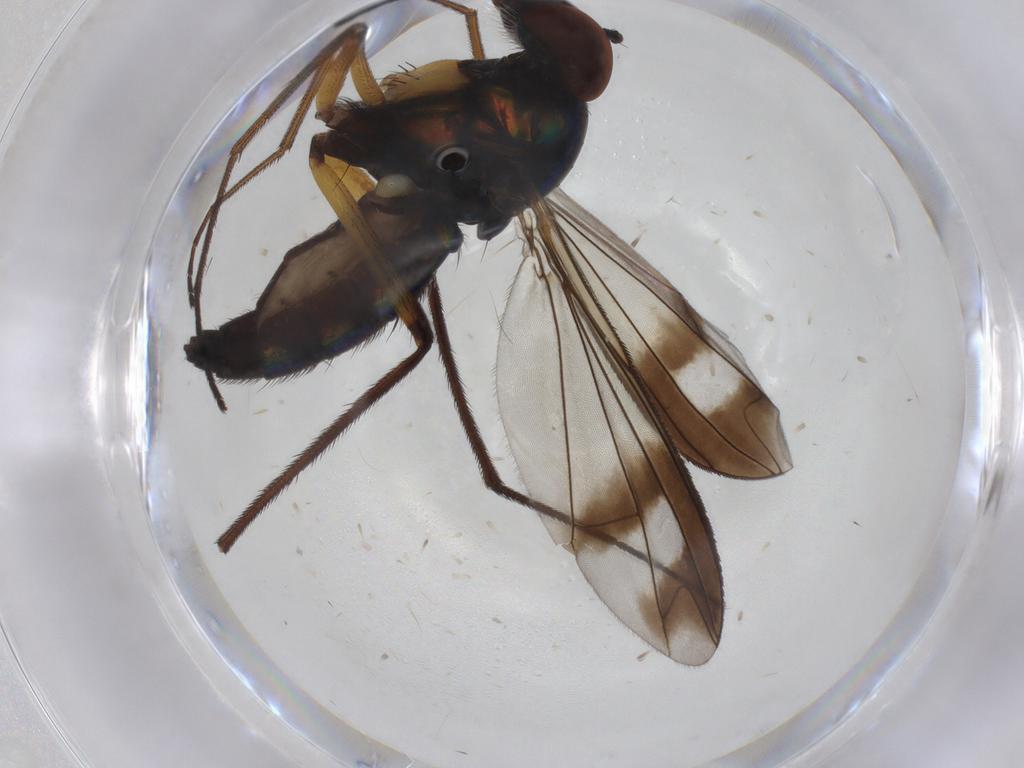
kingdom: Animalia
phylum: Arthropoda
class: Insecta
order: Diptera
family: Dolichopodidae
